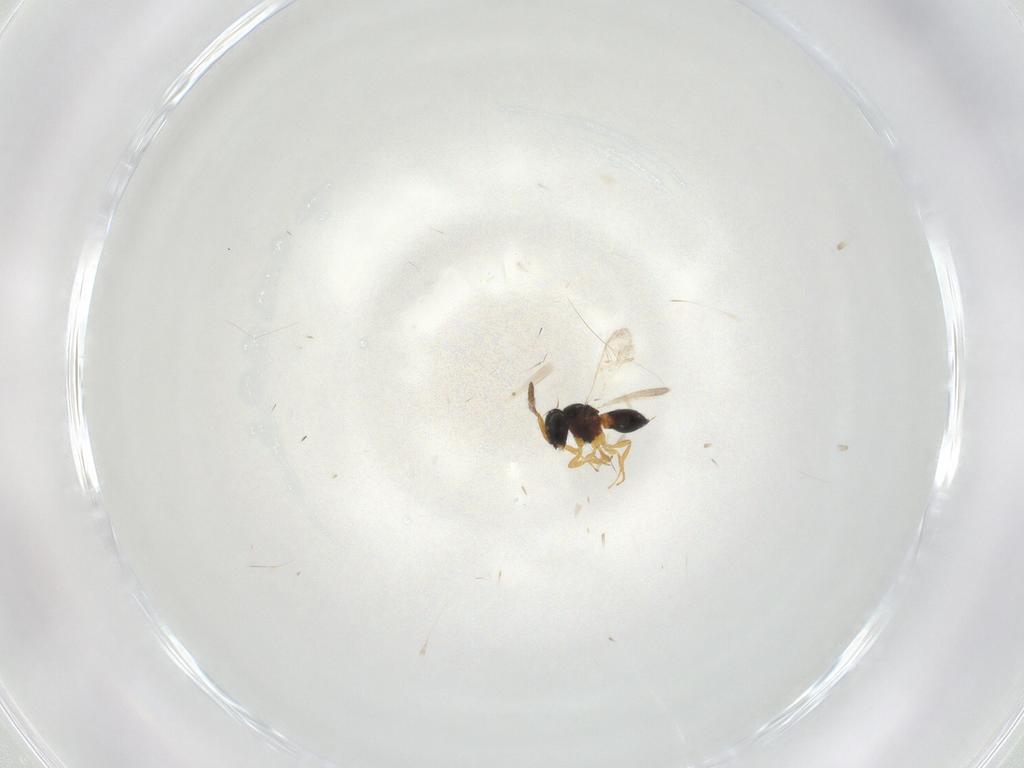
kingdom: Animalia
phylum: Arthropoda
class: Insecta
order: Hymenoptera
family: Scelionidae
